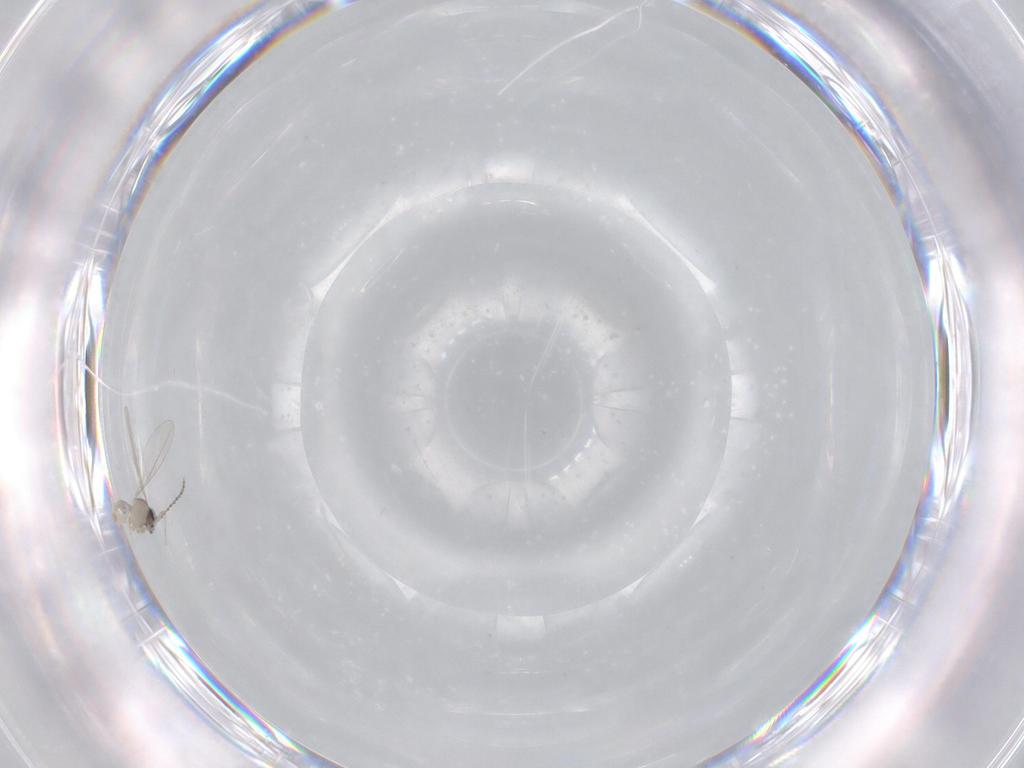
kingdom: Animalia
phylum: Arthropoda
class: Insecta
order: Diptera
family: Cecidomyiidae
